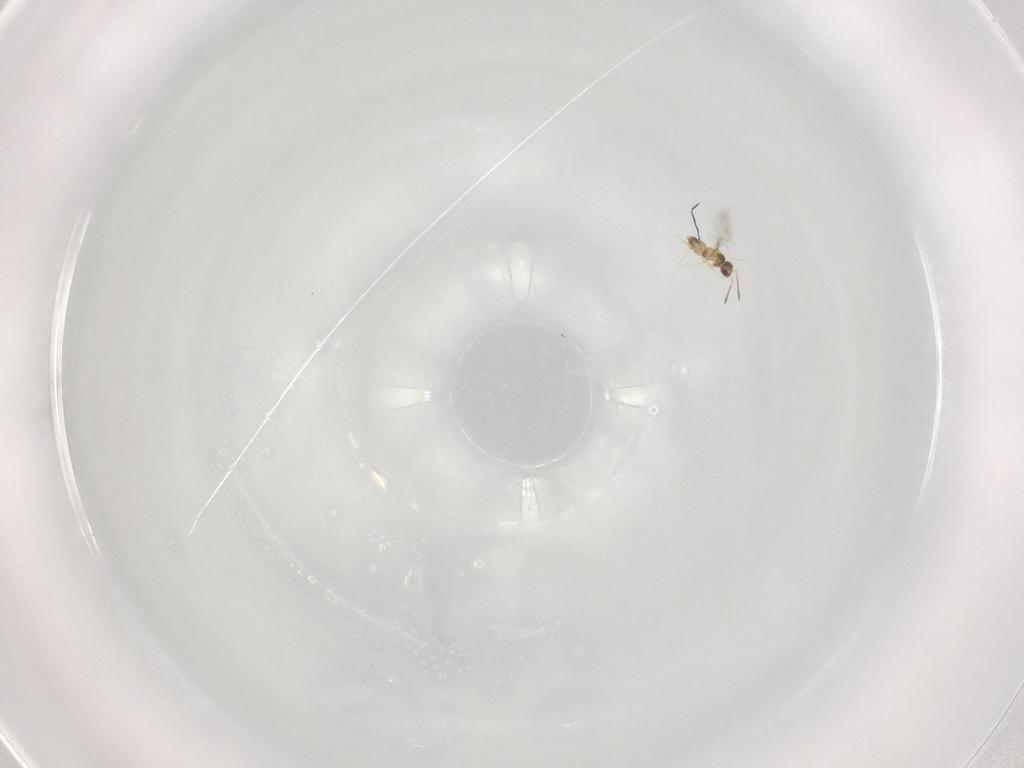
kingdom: Animalia
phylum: Arthropoda
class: Insecta
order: Hymenoptera
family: Mymaridae
